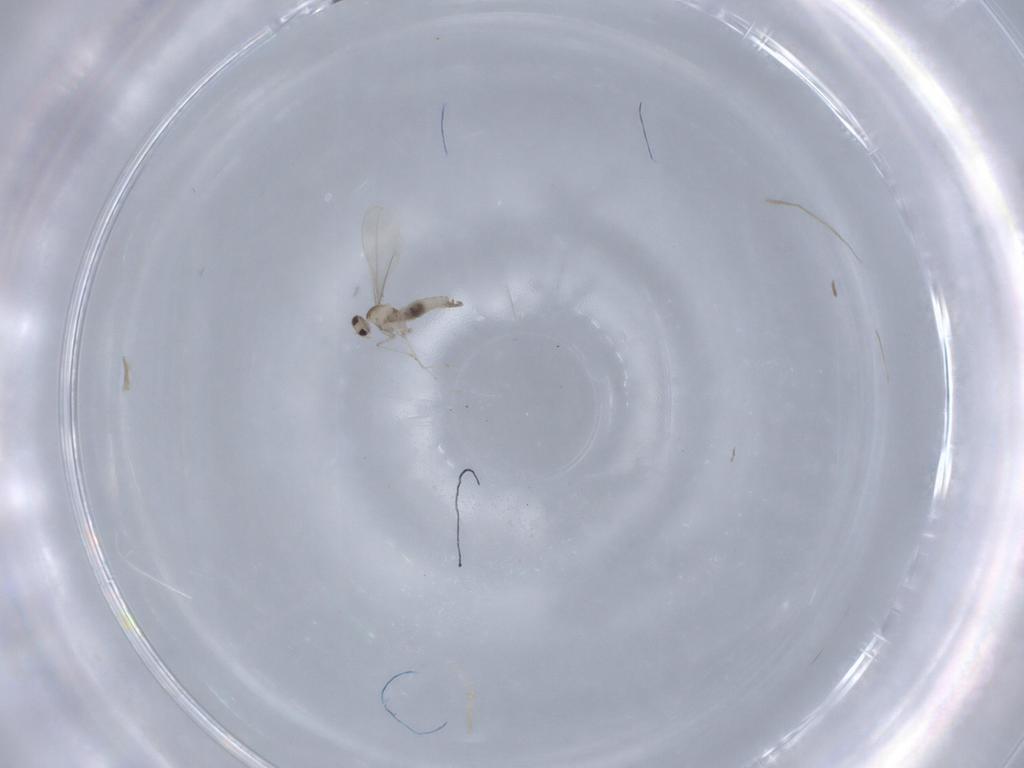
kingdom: Animalia
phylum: Arthropoda
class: Insecta
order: Diptera
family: Cecidomyiidae
